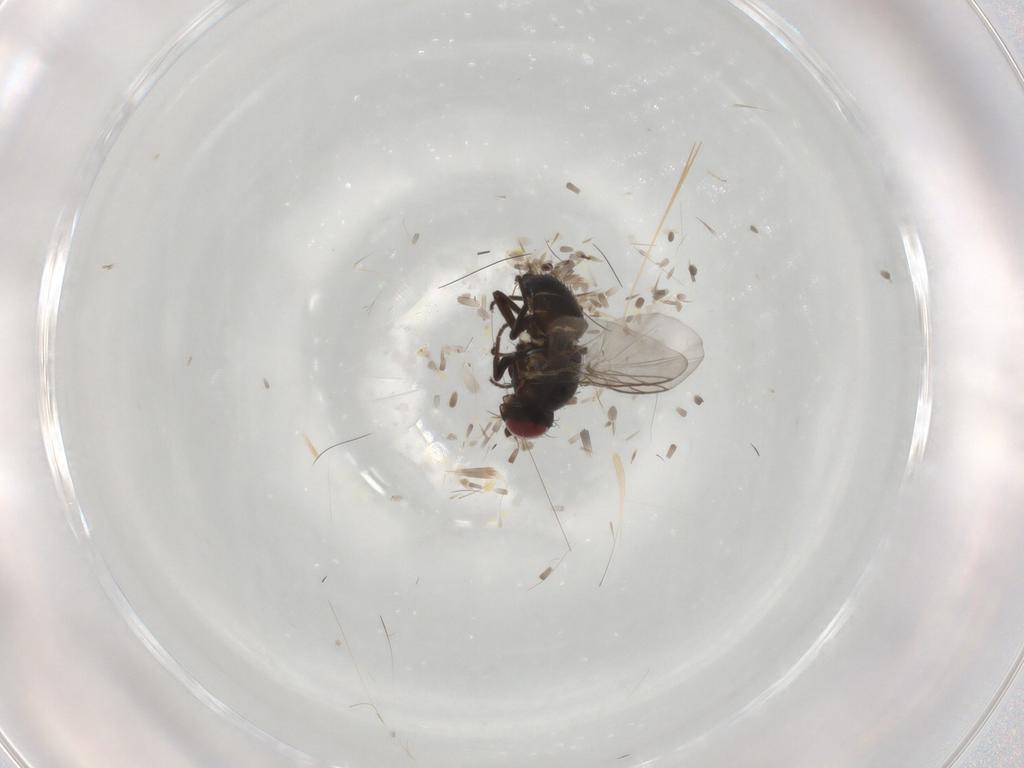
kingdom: Animalia
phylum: Arthropoda
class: Insecta
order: Diptera
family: Agromyzidae
